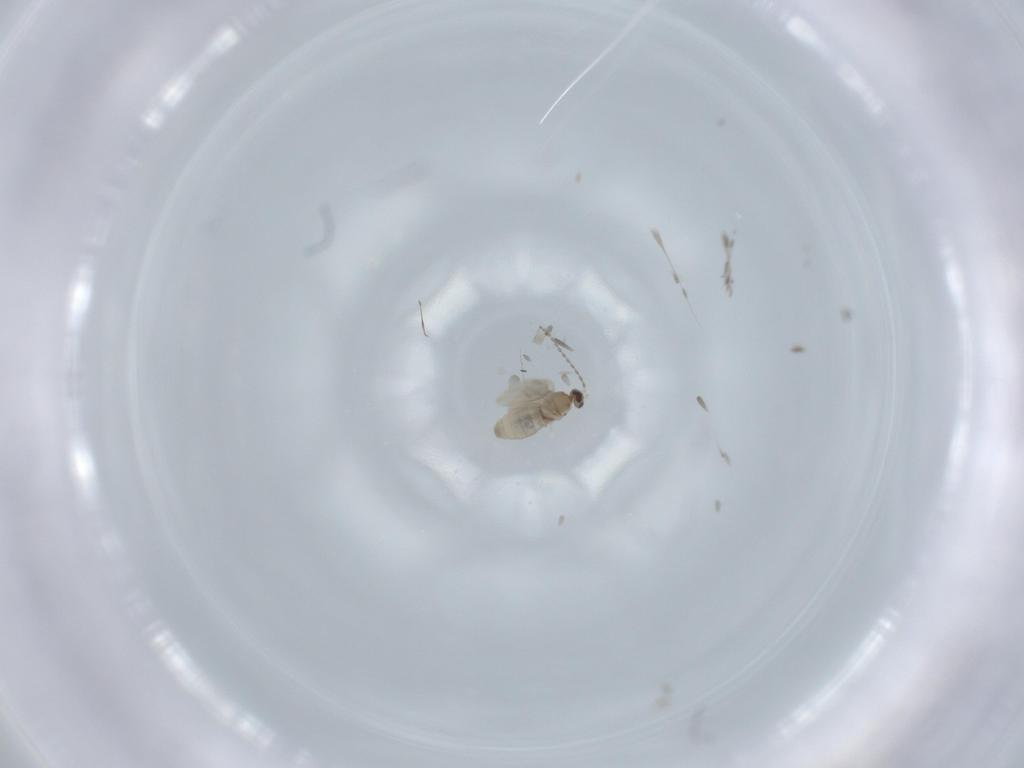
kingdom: Animalia
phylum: Arthropoda
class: Insecta
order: Diptera
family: Cecidomyiidae
